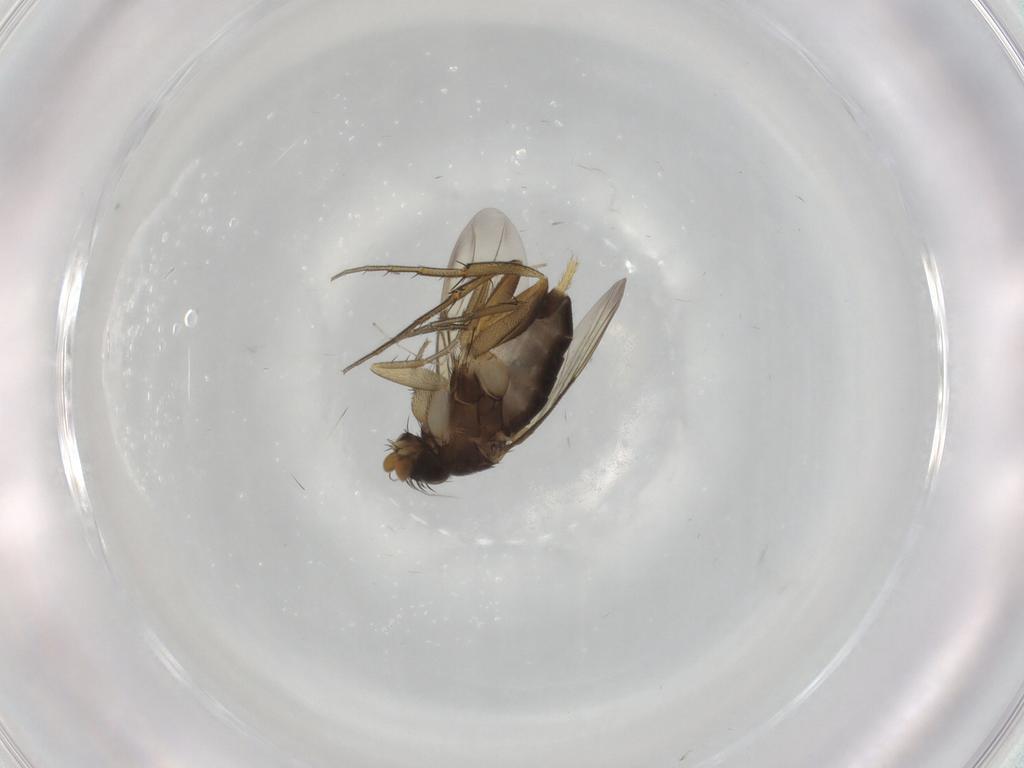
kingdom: Animalia
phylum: Arthropoda
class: Insecta
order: Diptera
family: Phoridae
